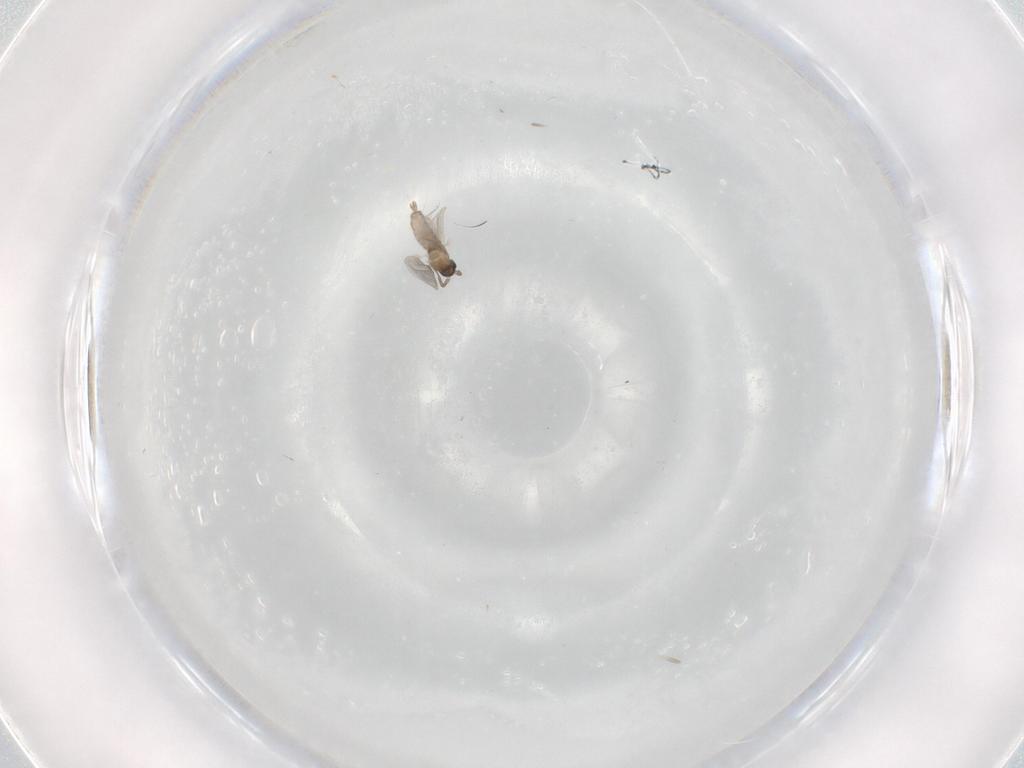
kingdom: Animalia
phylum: Arthropoda
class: Insecta
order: Diptera
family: Cecidomyiidae
